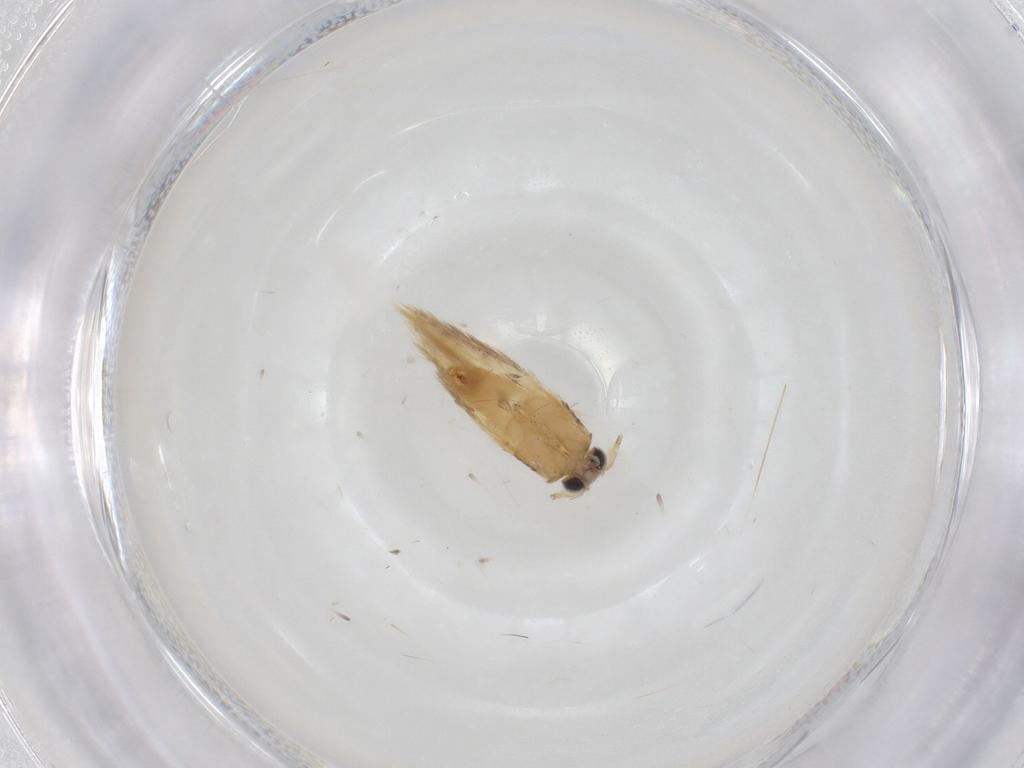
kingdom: Animalia
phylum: Arthropoda
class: Insecta
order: Lepidoptera
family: Nepticulidae
